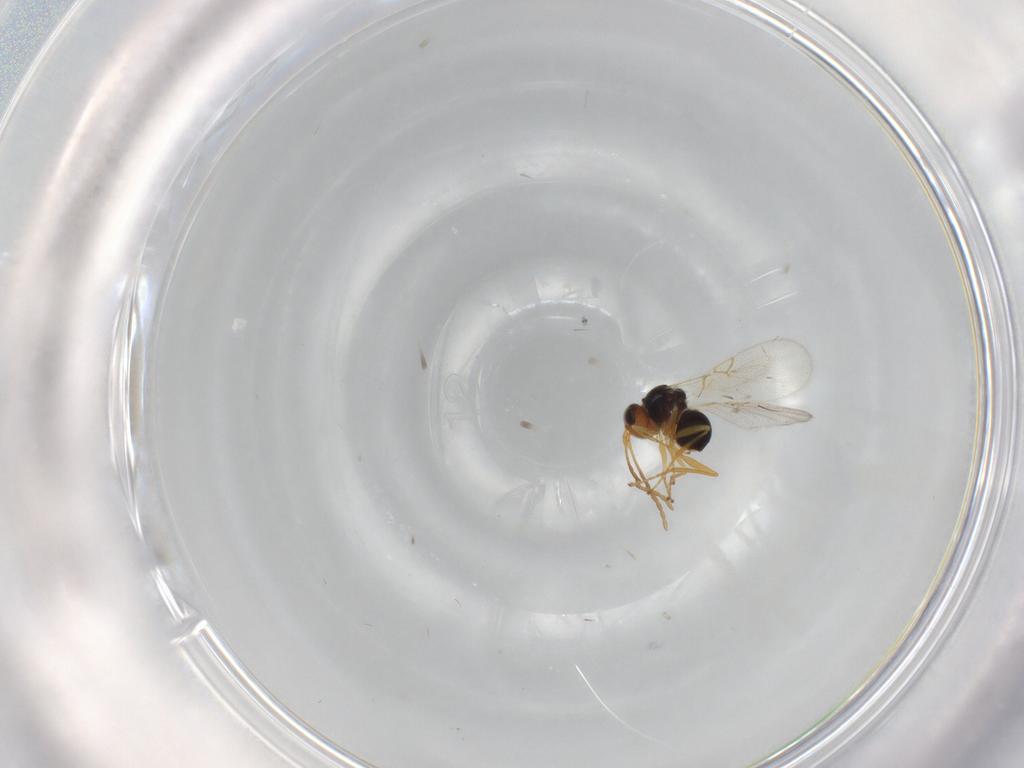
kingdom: Animalia
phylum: Arthropoda
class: Insecta
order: Hymenoptera
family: Figitidae
